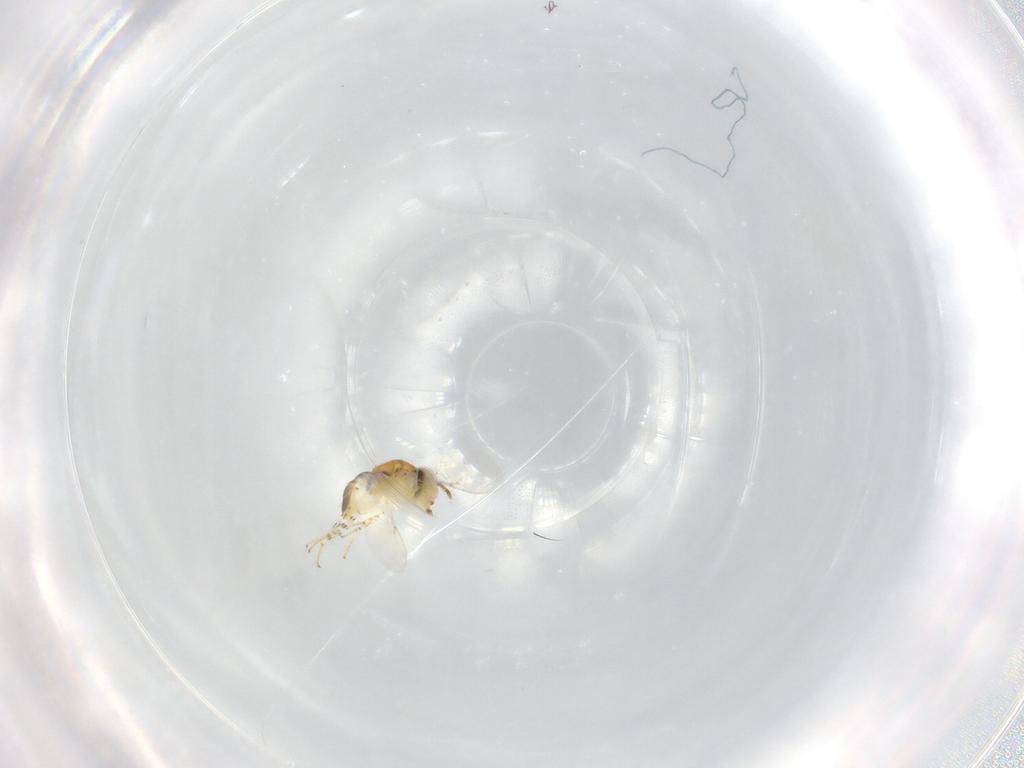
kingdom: Animalia
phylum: Arthropoda
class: Insecta
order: Hymenoptera
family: Encyrtidae
